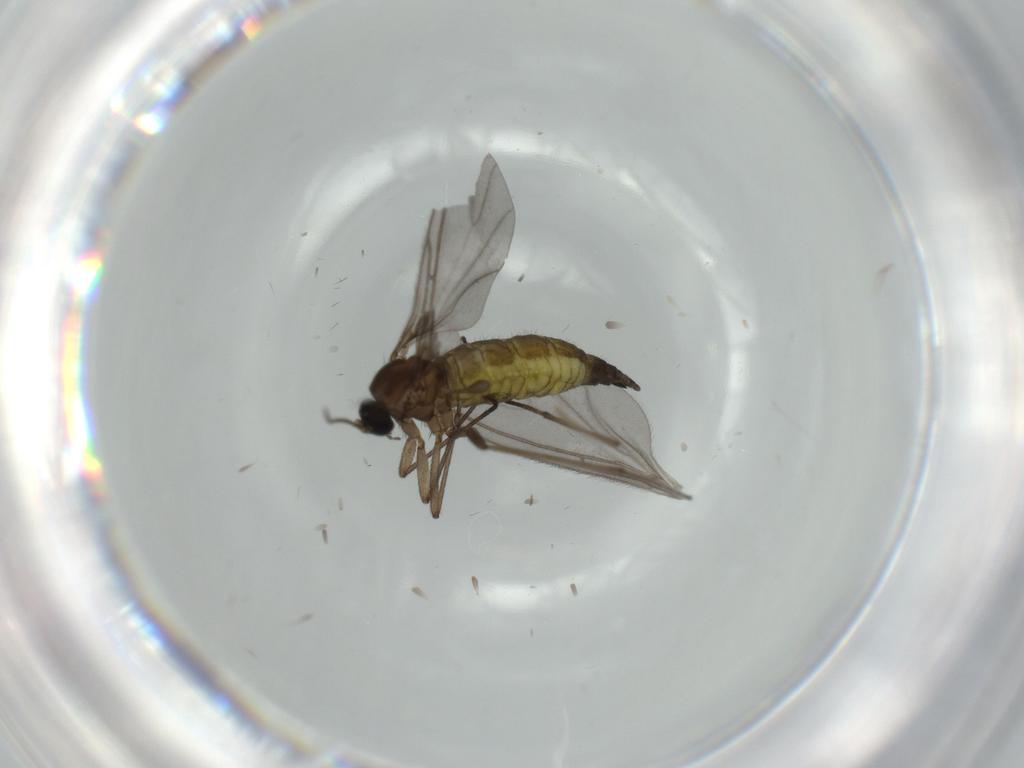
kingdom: Animalia
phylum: Arthropoda
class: Insecta
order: Diptera
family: Sciaridae
